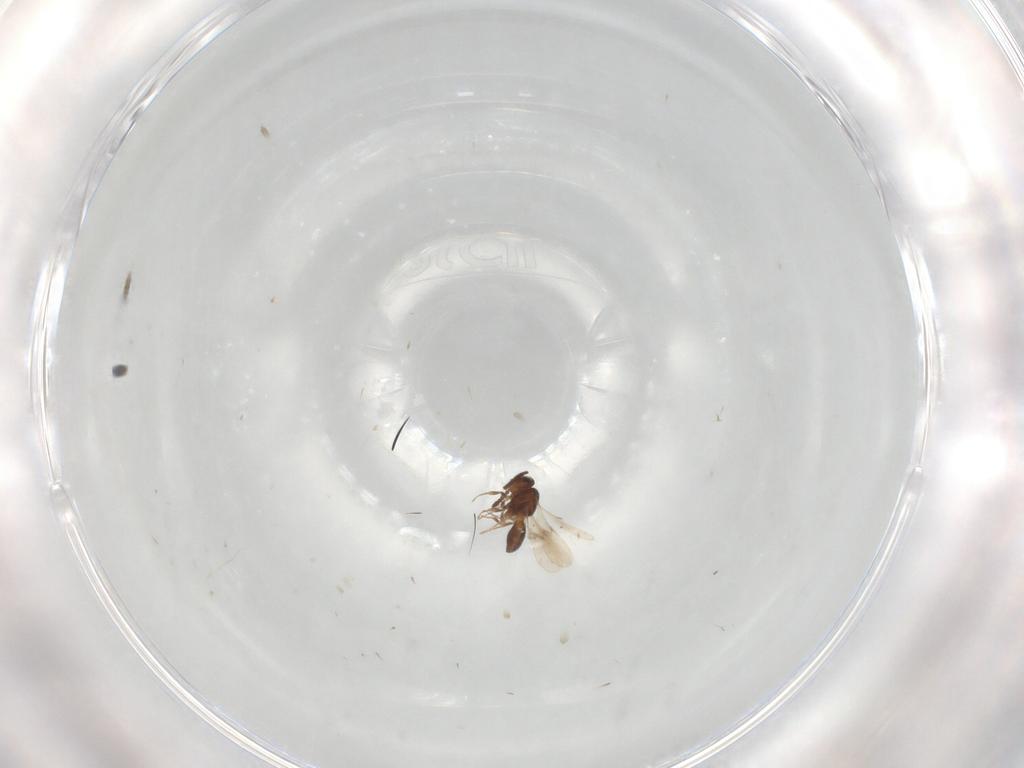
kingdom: Animalia
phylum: Arthropoda
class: Insecta
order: Hymenoptera
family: Scelionidae
